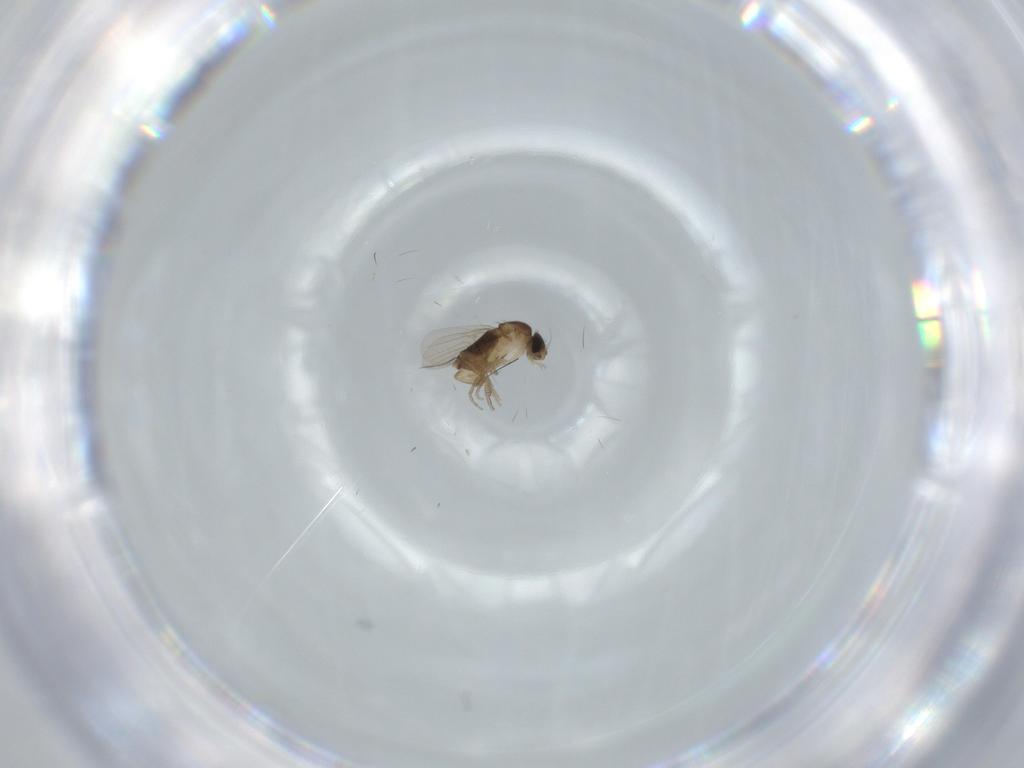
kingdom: Animalia
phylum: Arthropoda
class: Insecta
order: Diptera
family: Phoridae
